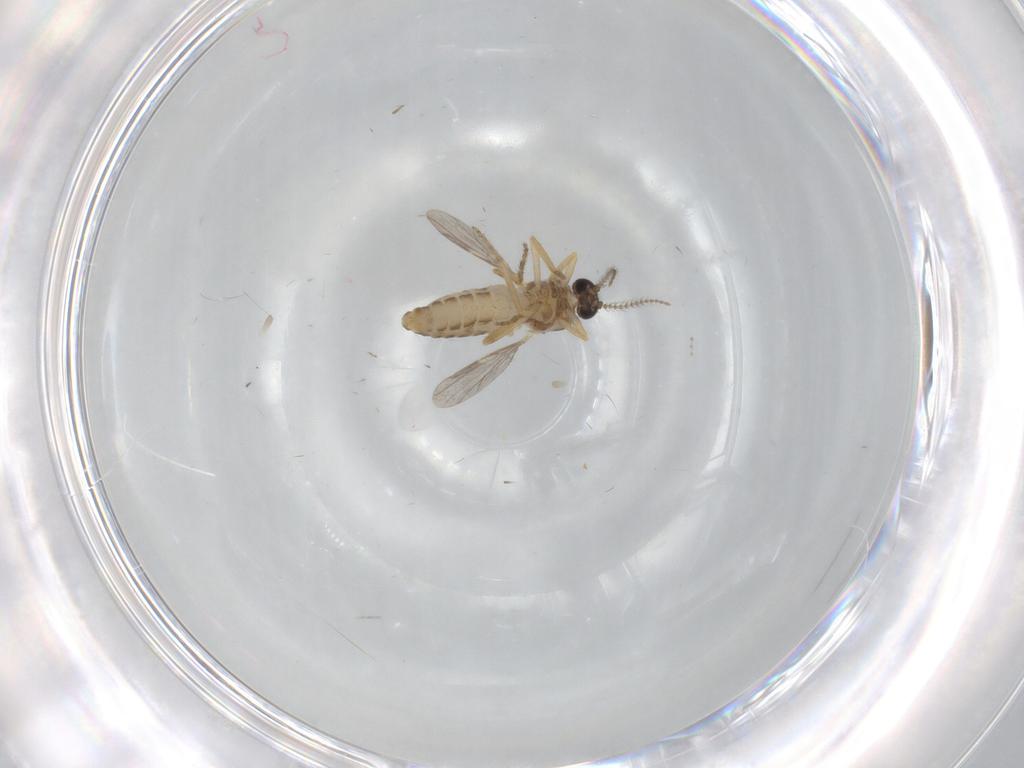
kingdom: Animalia
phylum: Arthropoda
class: Insecta
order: Diptera
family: Ceratopogonidae
